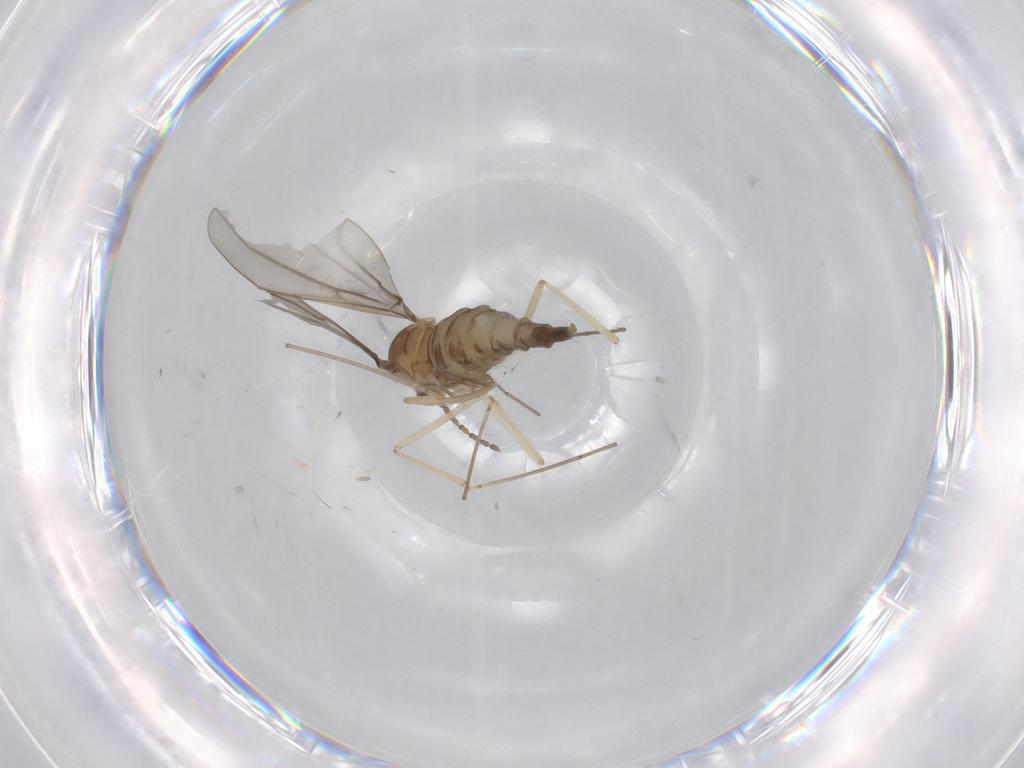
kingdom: Animalia
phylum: Arthropoda
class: Insecta
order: Diptera
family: Cecidomyiidae
